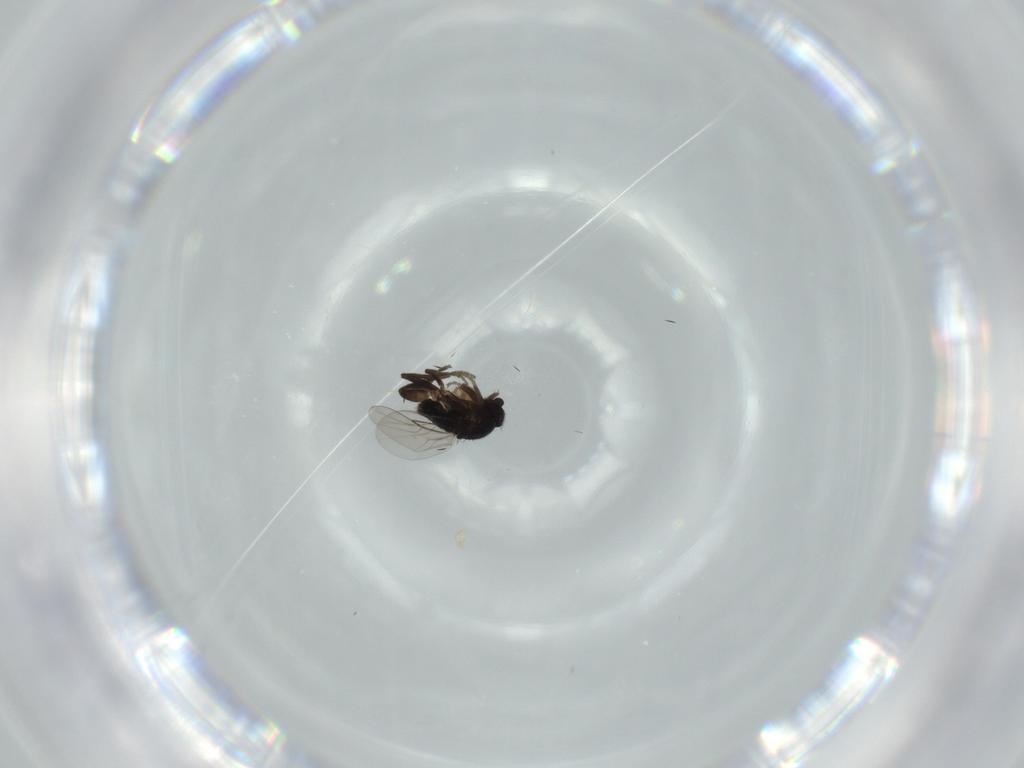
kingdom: Animalia
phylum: Arthropoda
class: Insecta
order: Diptera
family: Phoridae
